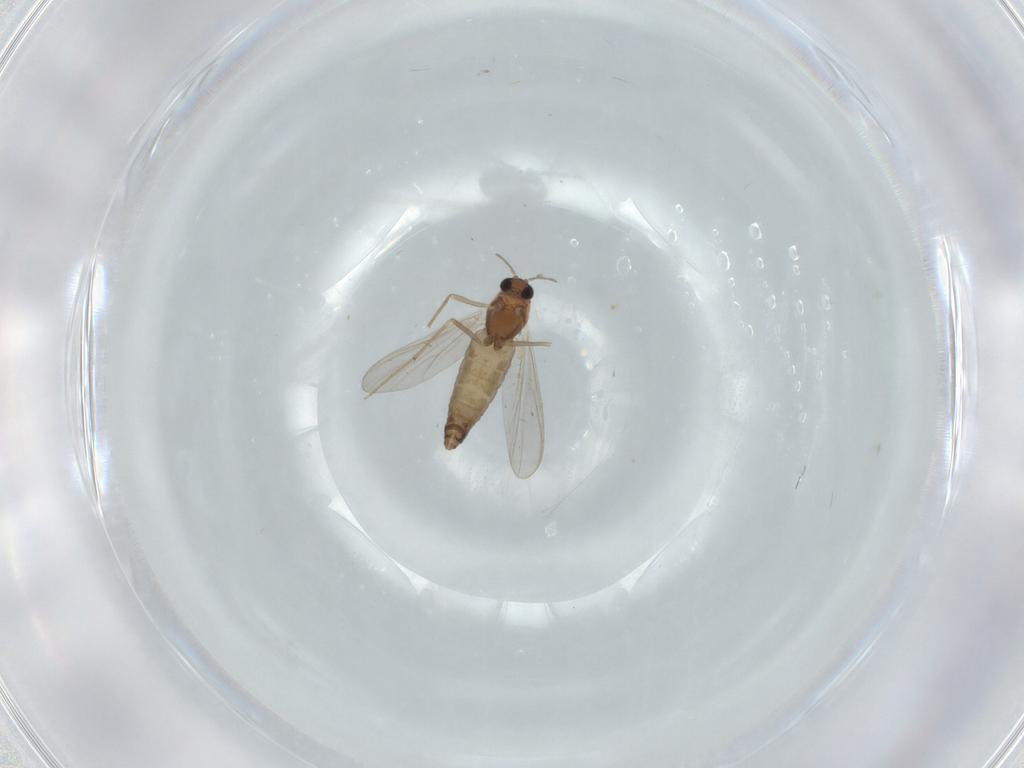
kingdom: Animalia
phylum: Arthropoda
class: Insecta
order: Diptera
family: Chironomidae
